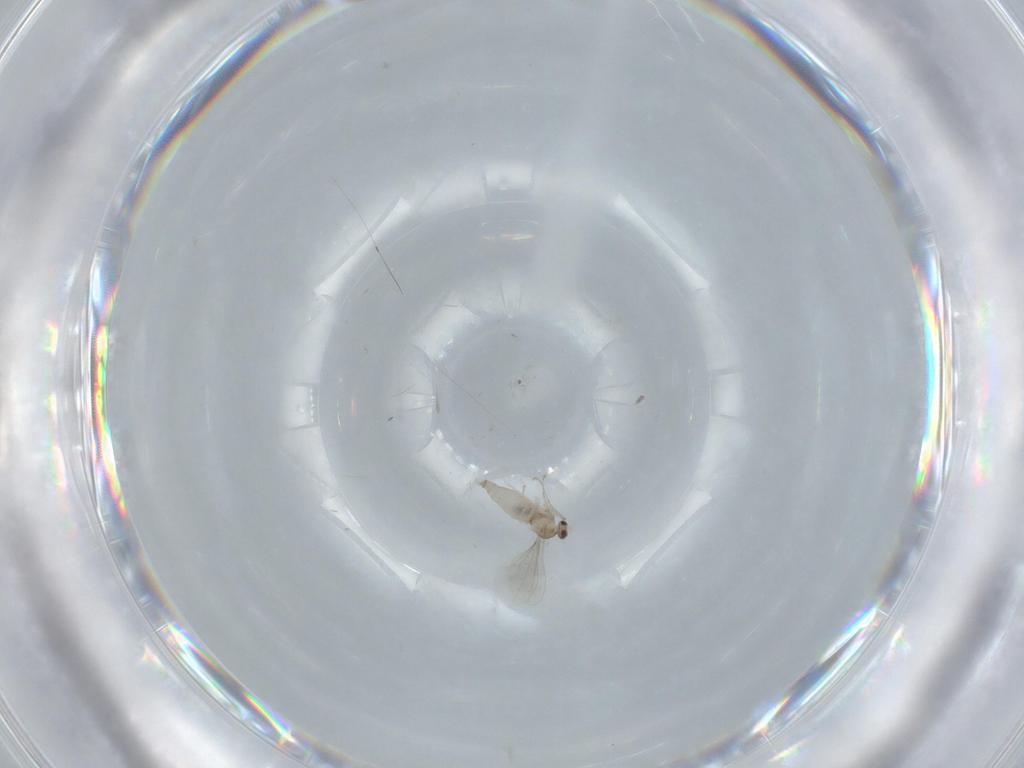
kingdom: Animalia
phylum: Arthropoda
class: Insecta
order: Diptera
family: Cecidomyiidae
